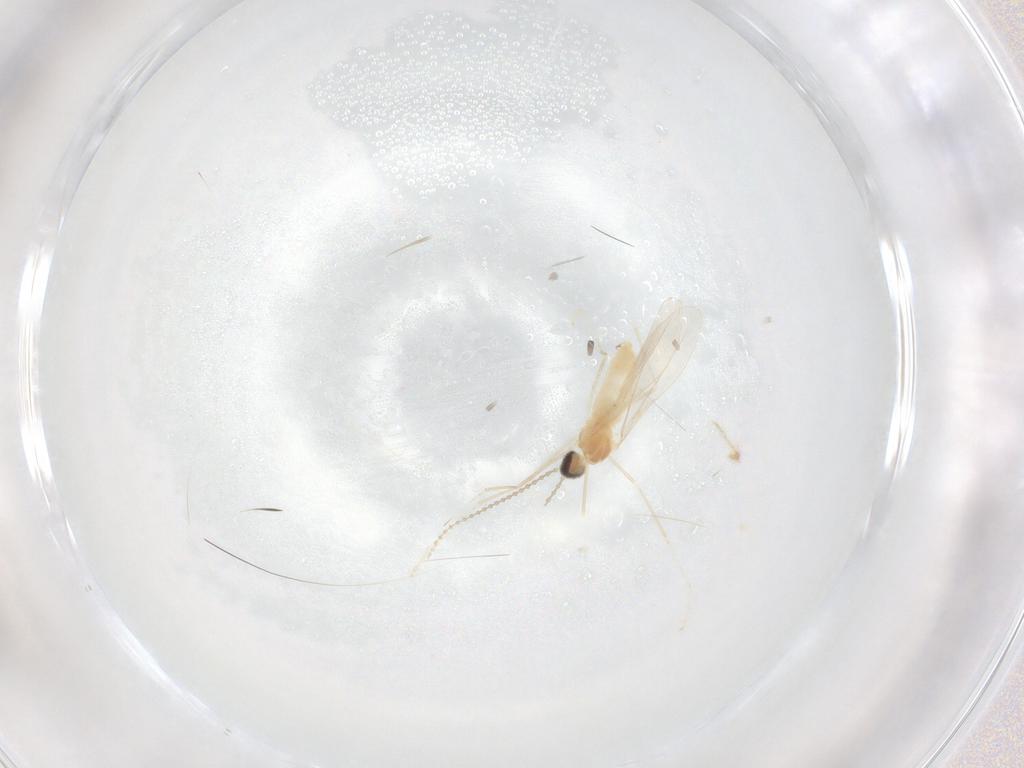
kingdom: Animalia
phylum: Arthropoda
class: Insecta
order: Diptera
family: Cecidomyiidae
